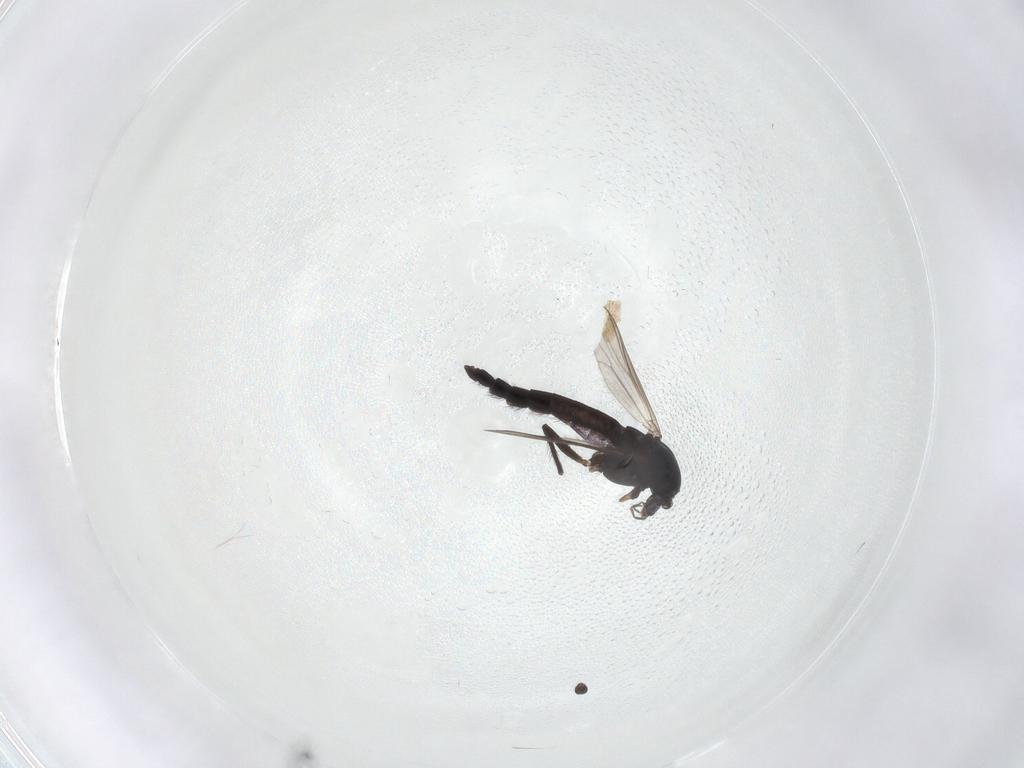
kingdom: Animalia
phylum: Arthropoda
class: Insecta
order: Diptera
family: Chironomidae
